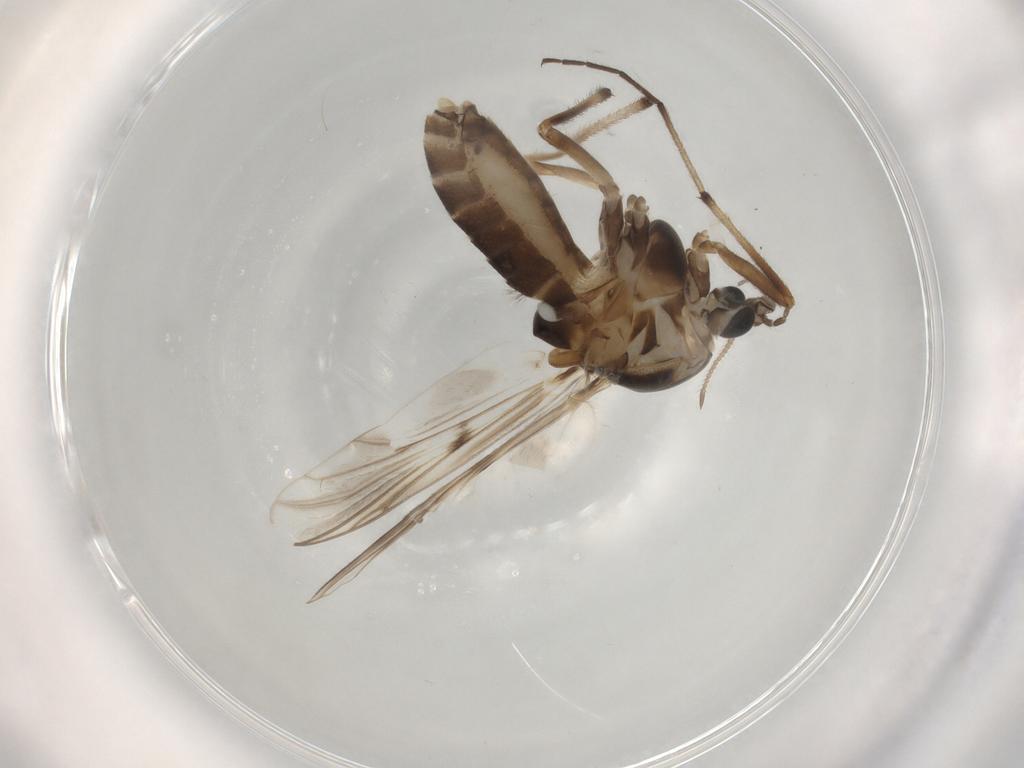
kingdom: Animalia
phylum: Arthropoda
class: Insecta
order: Diptera
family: Chironomidae
